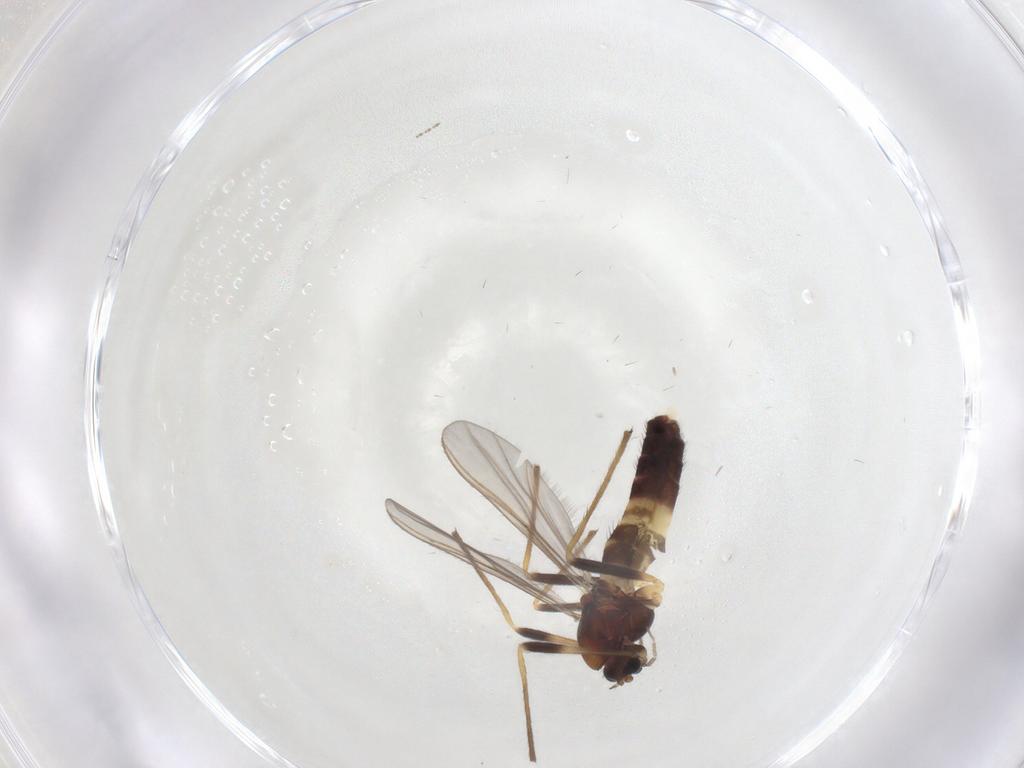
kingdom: Animalia
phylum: Arthropoda
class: Insecta
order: Diptera
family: Chironomidae
